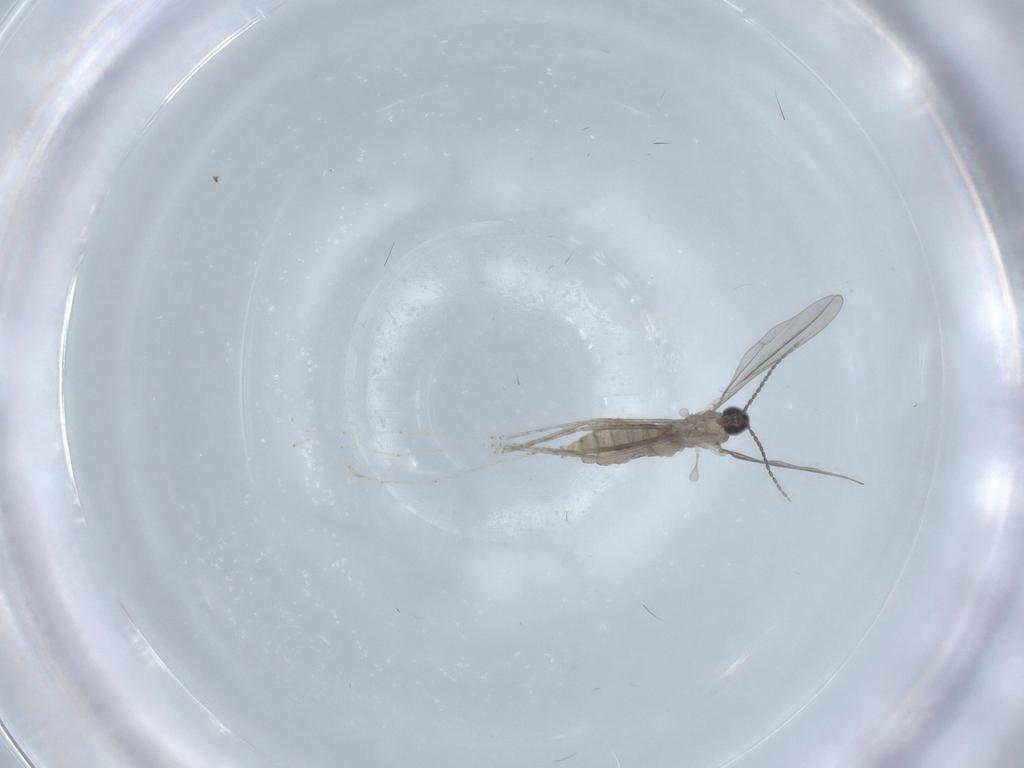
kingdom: Animalia
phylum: Arthropoda
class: Insecta
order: Diptera
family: Cecidomyiidae
